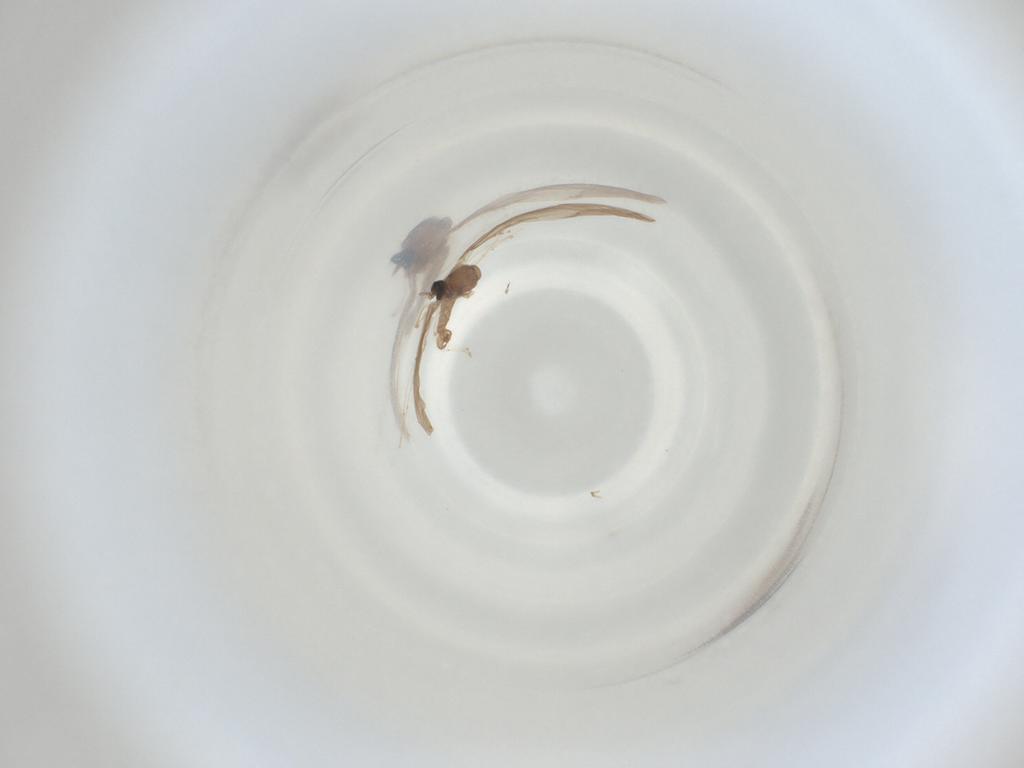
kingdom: Animalia
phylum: Arthropoda
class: Insecta
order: Diptera
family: Cecidomyiidae
